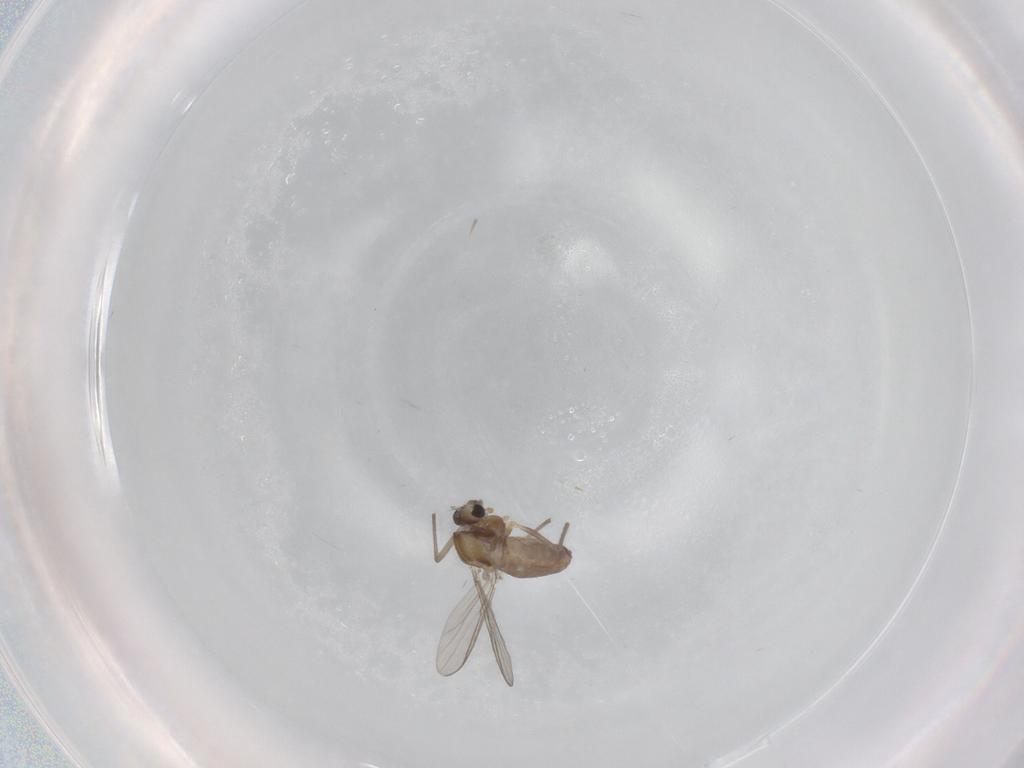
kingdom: Animalia
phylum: Arthropoda
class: Insecta
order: Diptera
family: Chironomidae
